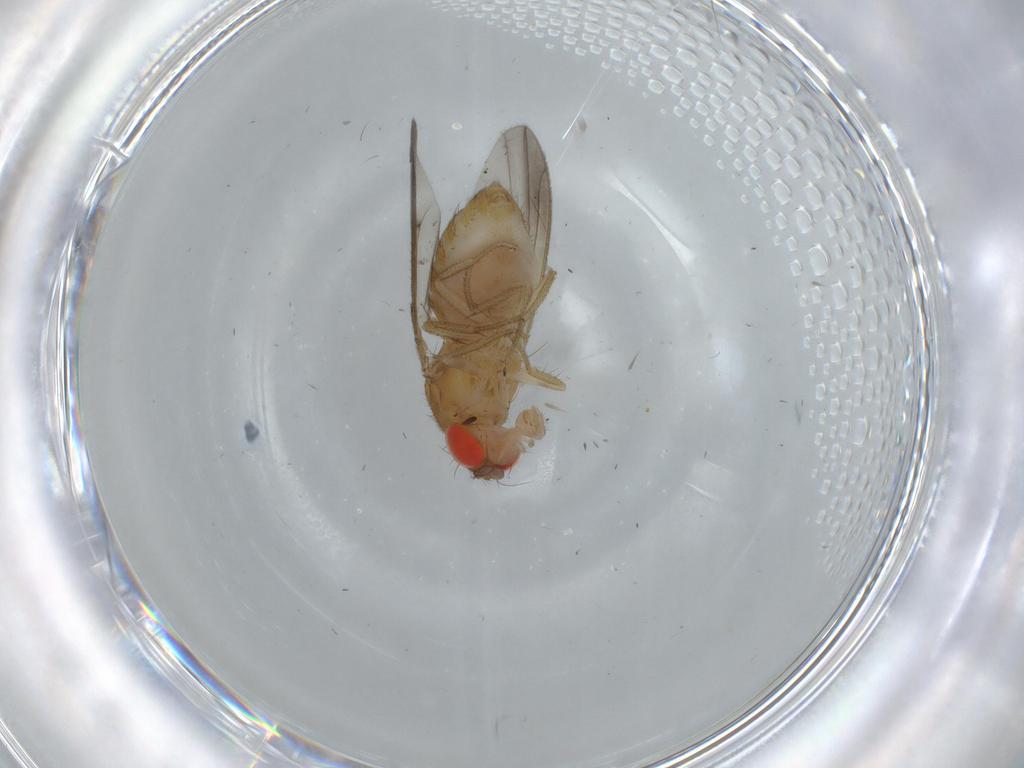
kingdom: Animalia
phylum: Arthropoda
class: Insecta
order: Diptera
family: Drosophilidae
